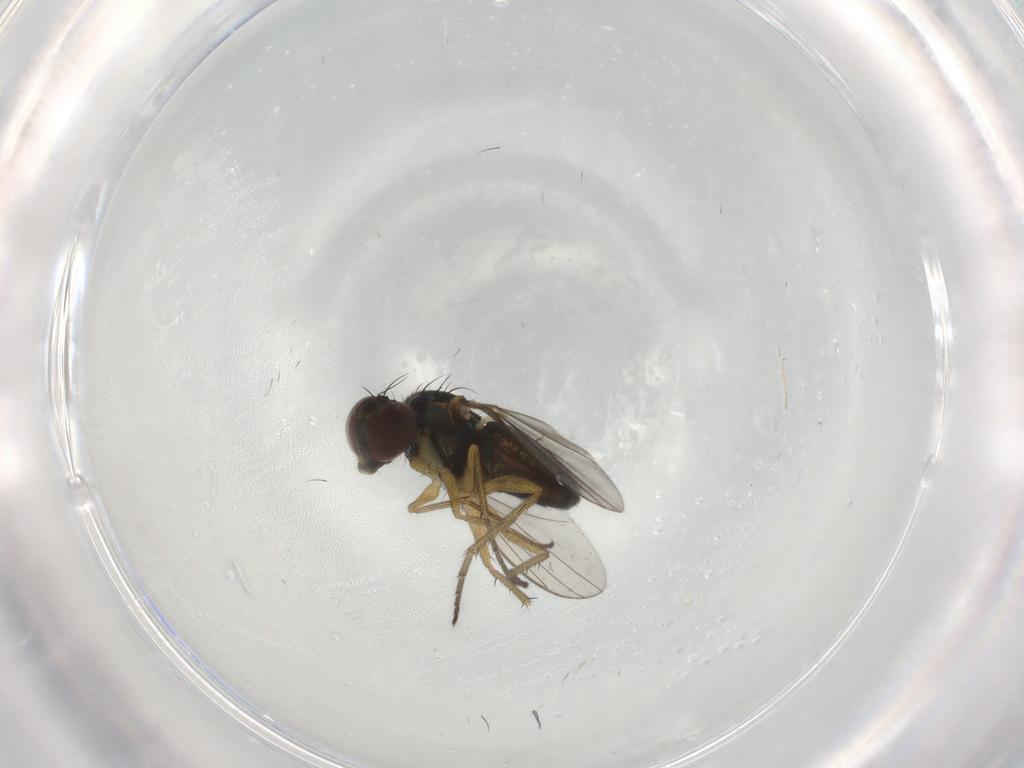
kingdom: Animalia
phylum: Arthropoda
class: Insecta
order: Diptera
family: Dolichopodidae
